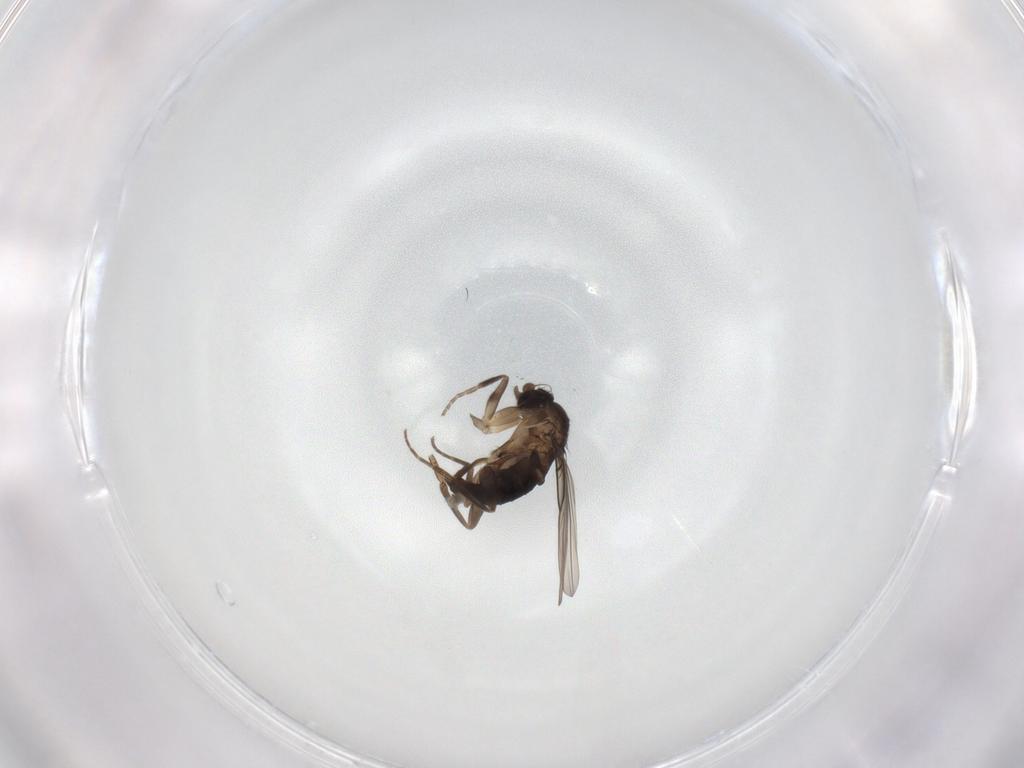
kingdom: Animalia
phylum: Arthropoda
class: Insecta
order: Diptera
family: Phoridae
